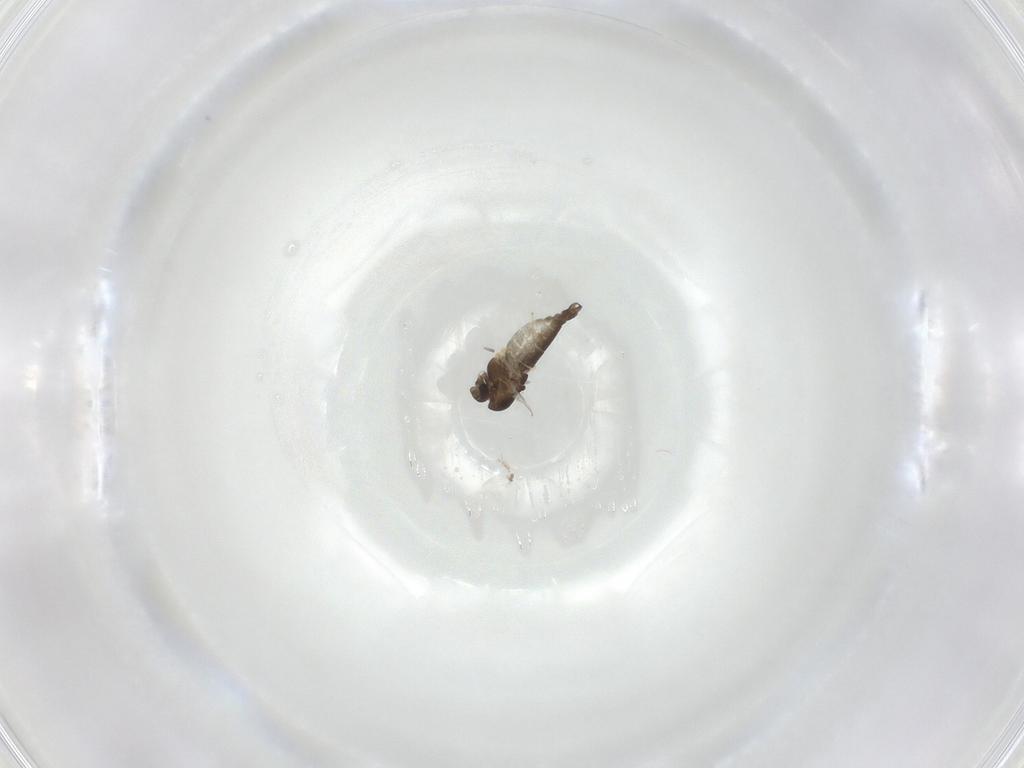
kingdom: Animalia
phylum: Arthropoda
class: Insecta
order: Diptera
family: Chironomidae
